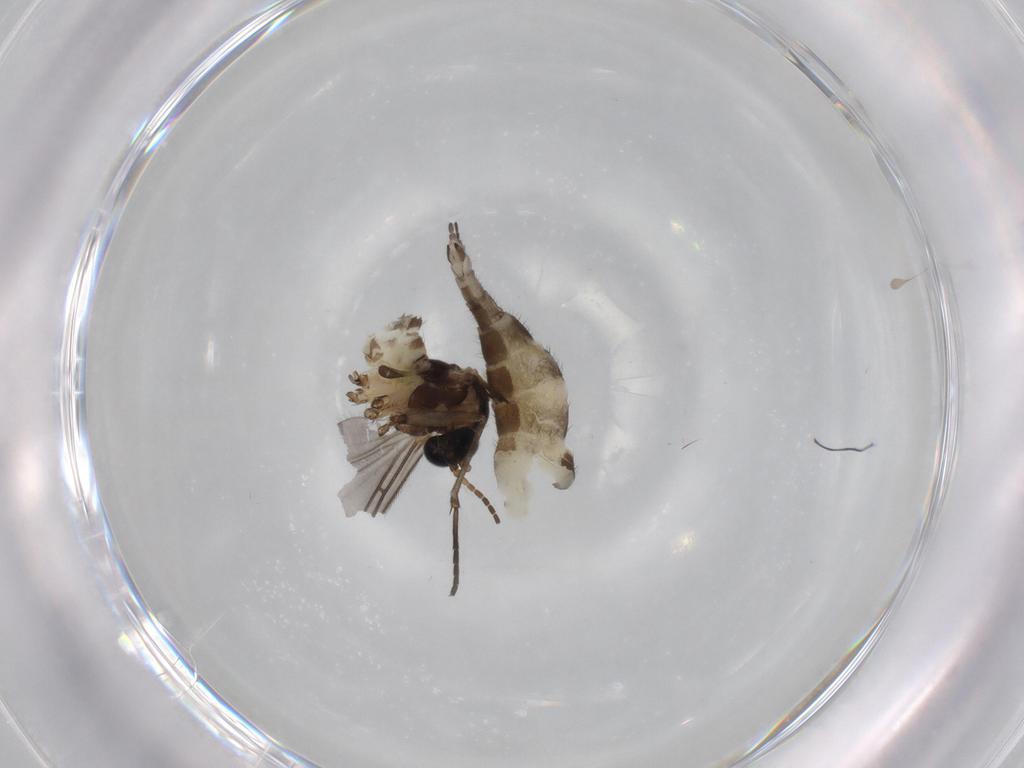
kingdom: Animalia
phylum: Arthropoda
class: Insecta
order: Diptera
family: Sciaridae
